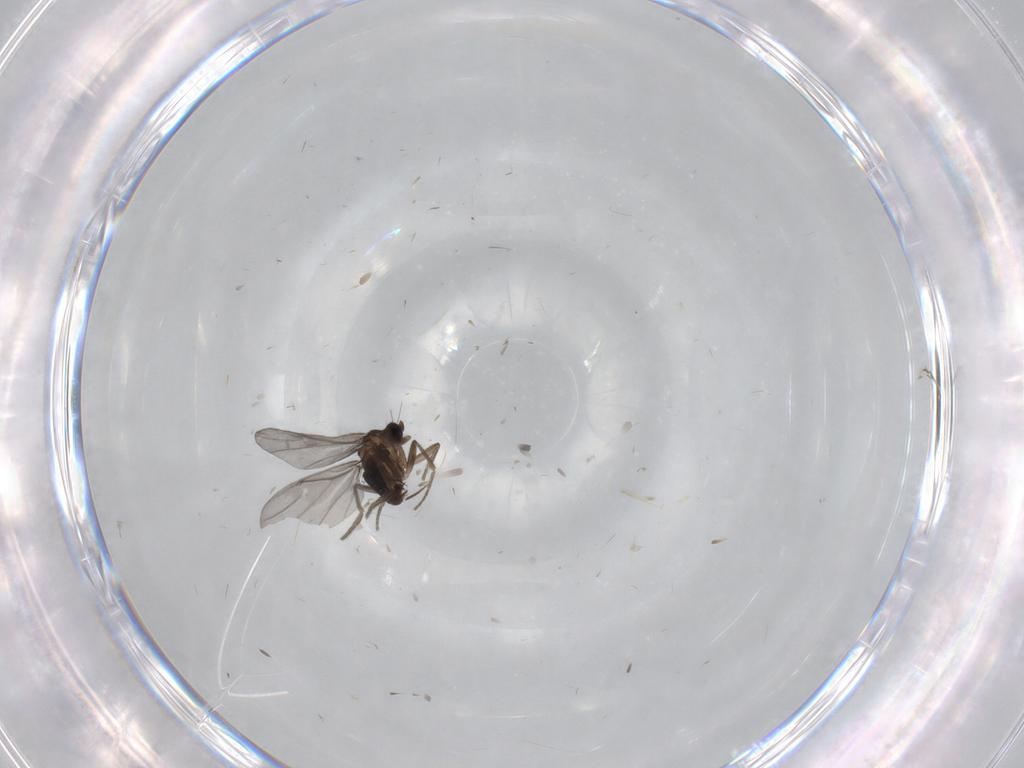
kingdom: Animalia
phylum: Arthropoda
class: Insecta
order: Diptera
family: Cecidomyiidae
